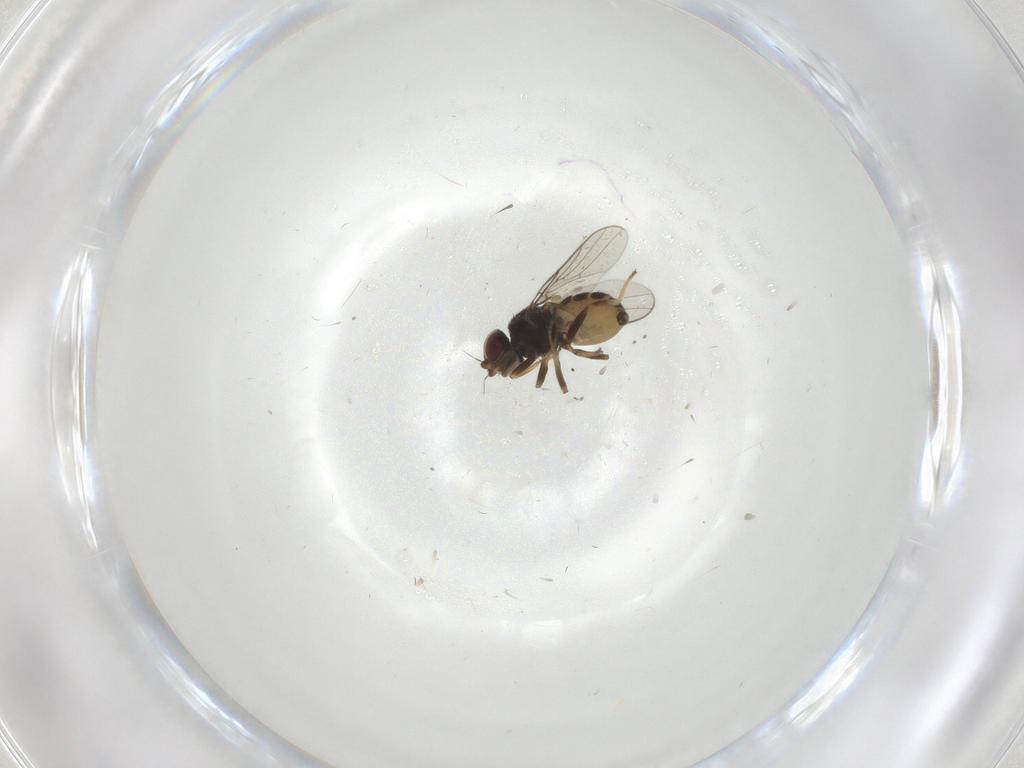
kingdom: Animalia
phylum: Arthropoda
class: Insecta
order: Diptera
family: Chloropidae
